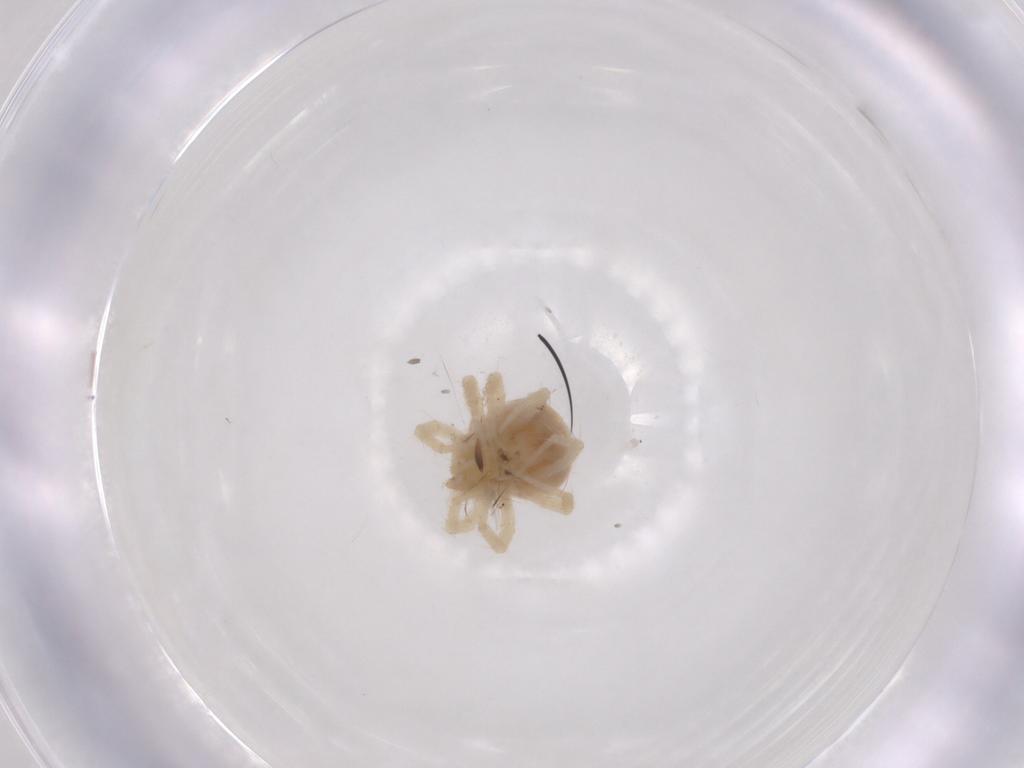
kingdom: Animalia
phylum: Arthropoda
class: Arachnida
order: Trombidiformes
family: Anystidae
